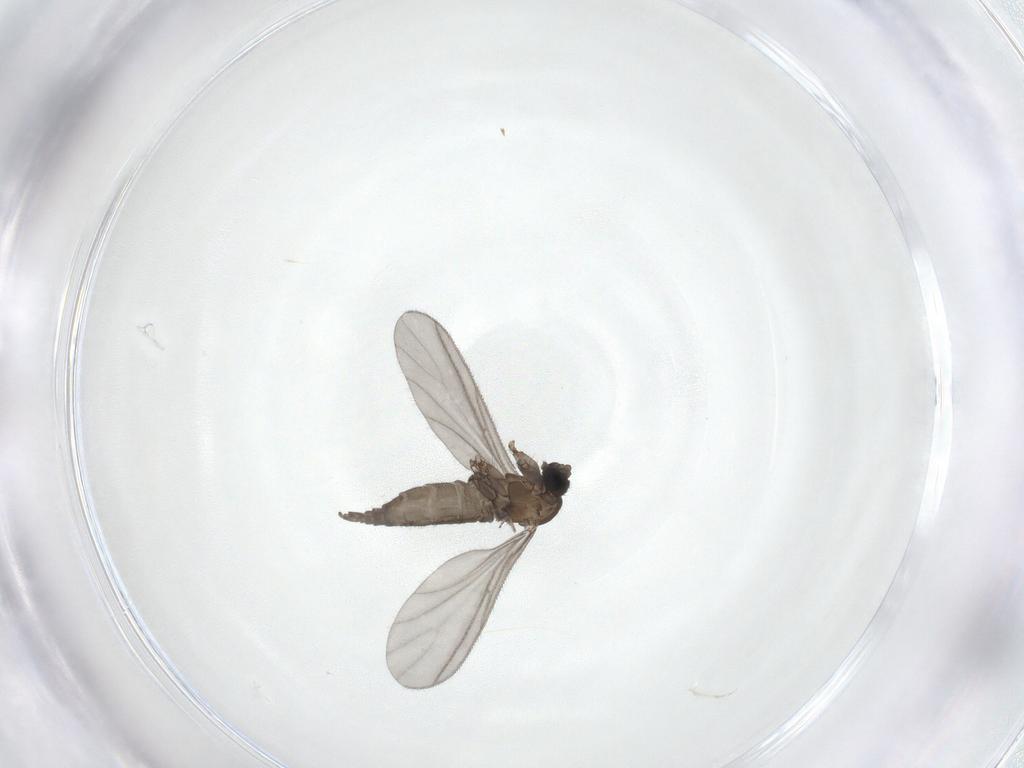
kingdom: Animalia
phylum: Arthropoda
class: Insecta
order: Diptera
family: Sciaridae
